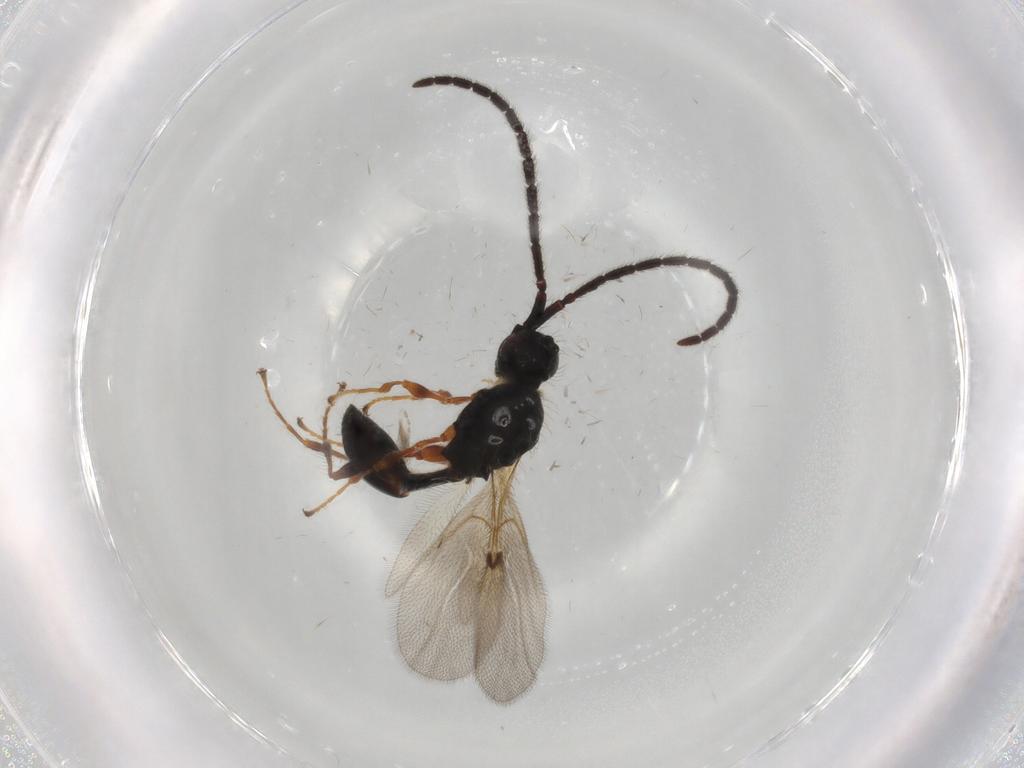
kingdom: Animalia
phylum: Arthropoda
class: Insecta
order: Hymenoptera
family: Diapriidae
